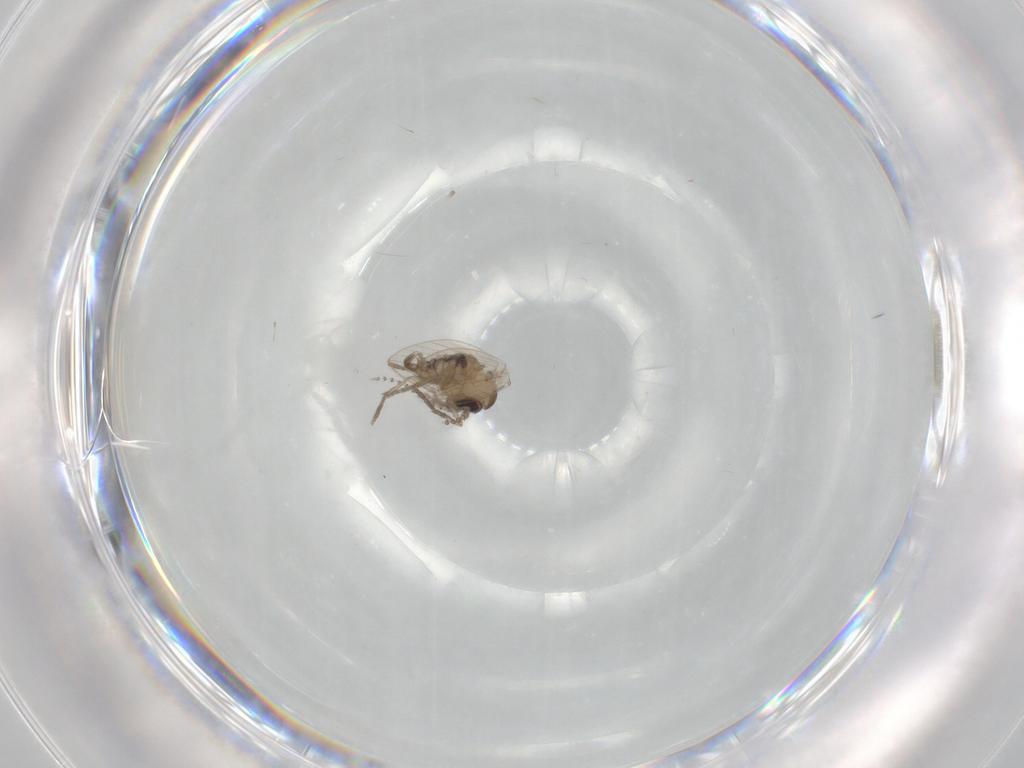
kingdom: Animalia
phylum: Arthropoda
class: Insecta
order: Diptera
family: Psychodidae
